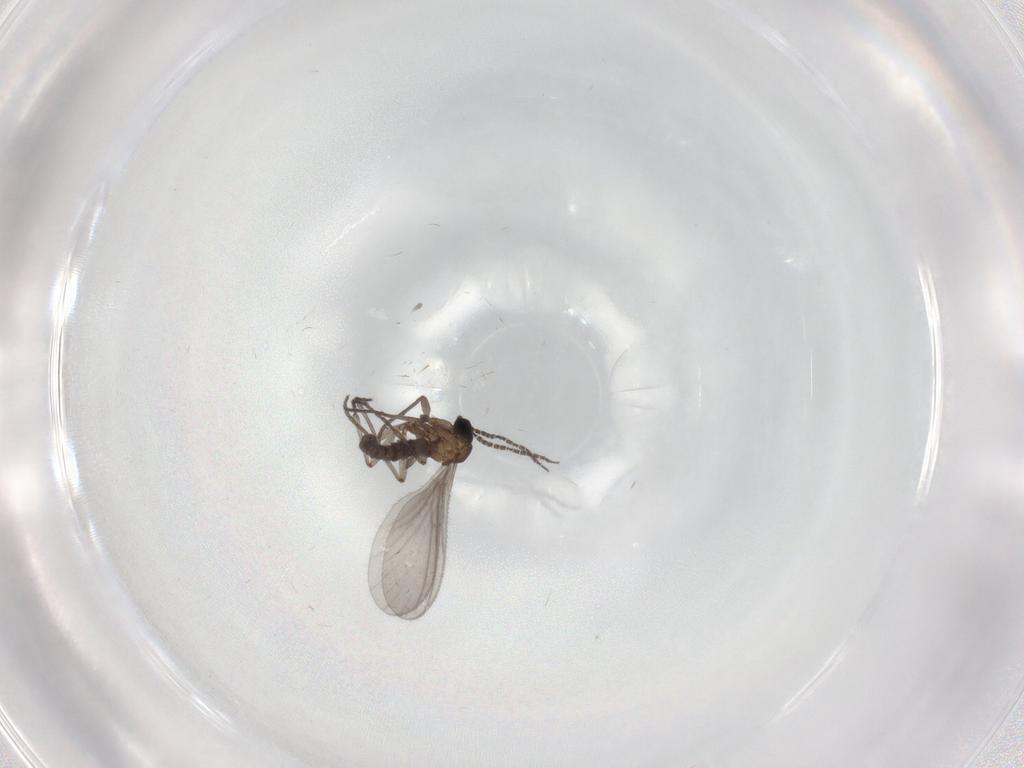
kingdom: Animalia
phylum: Arthropoda
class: Insecta
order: Diptera
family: Sciaridae
